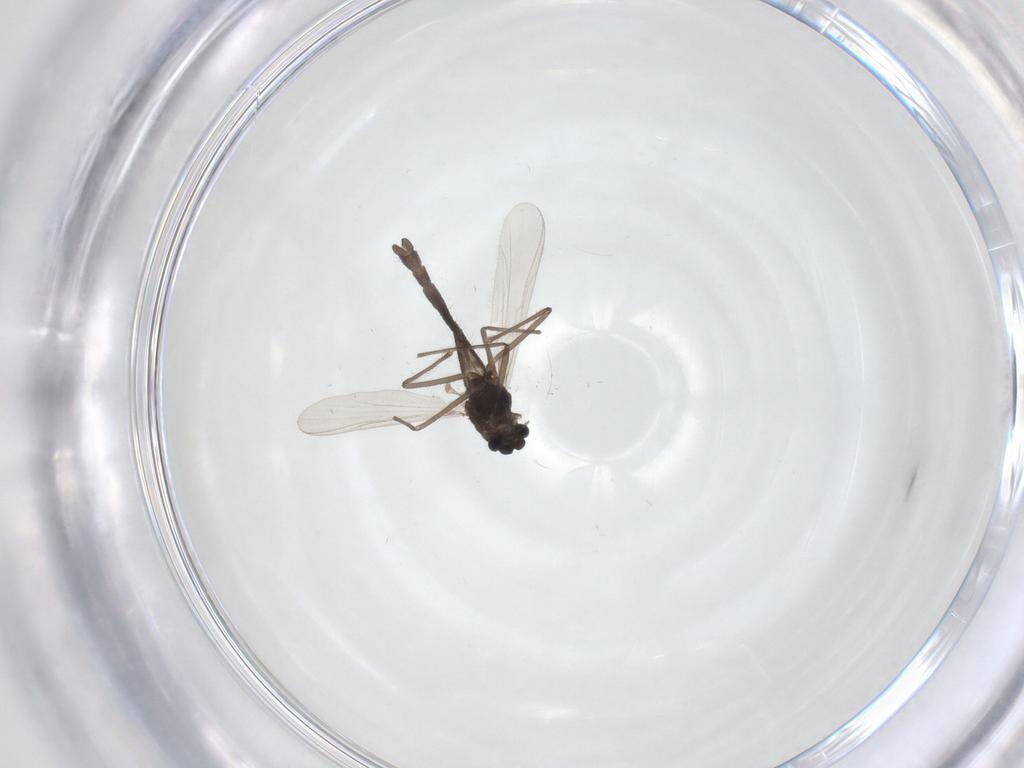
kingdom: Animalia
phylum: Arthropoda
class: Insecta
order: Diptera
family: Chironomidae
